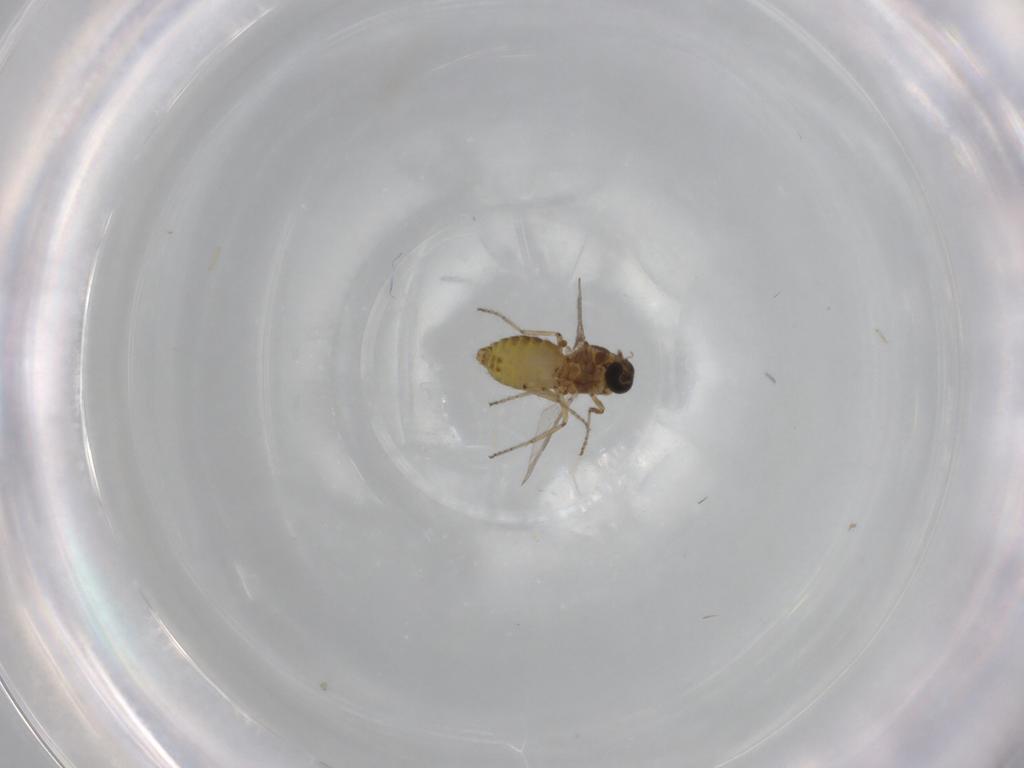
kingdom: Animalia
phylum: Arthropoda
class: Insecta
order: Diptera
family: Ceratopogonidae
